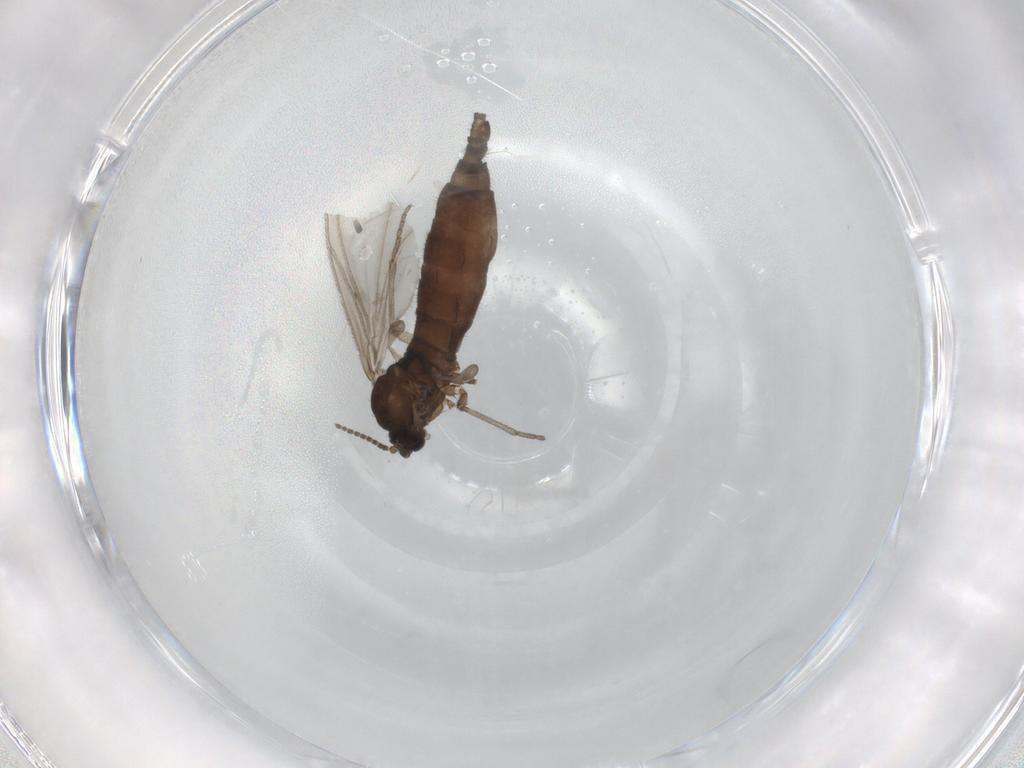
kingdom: Animalia
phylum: Arthropoda
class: Insecta
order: Diptera
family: Sciaridae
